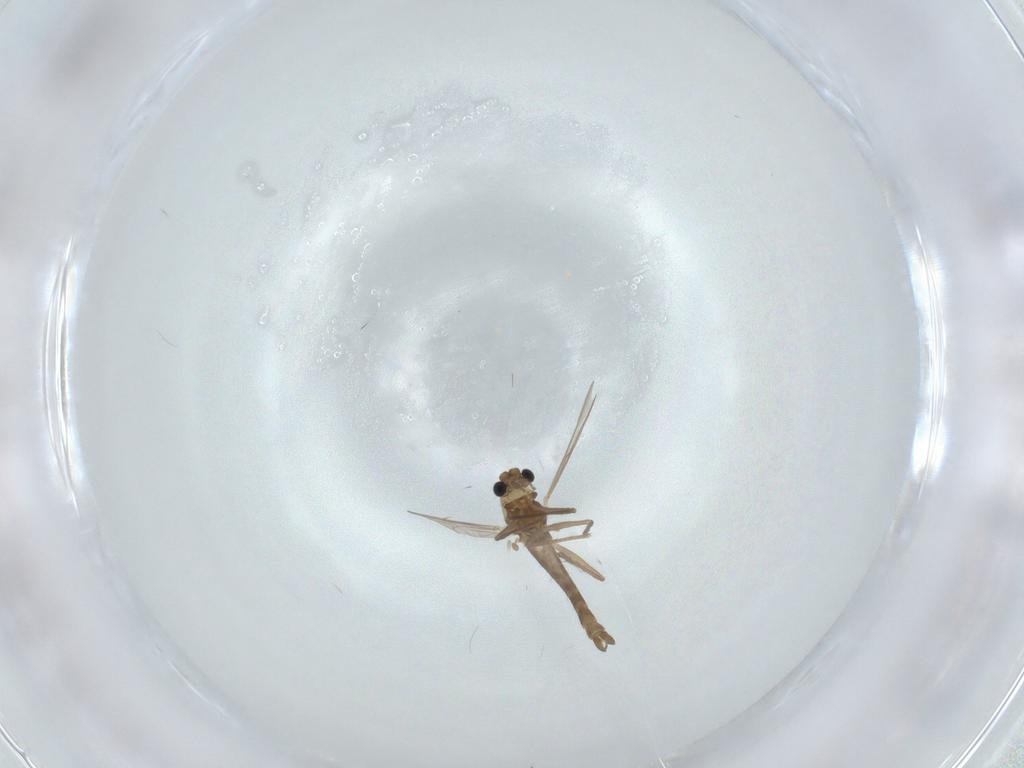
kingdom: Animalia
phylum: Arthropoda
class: Insecta
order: Diptera
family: Chironomidae
